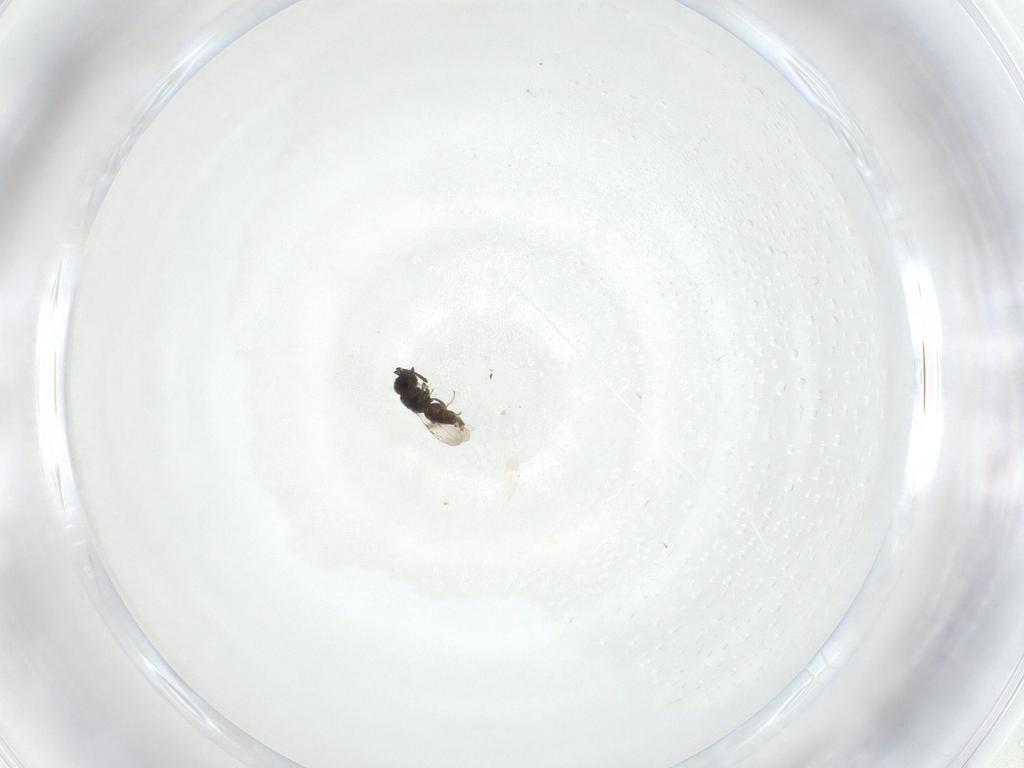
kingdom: Animalia
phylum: Arthropoda
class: Insecta
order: Hymenoptera
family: Ceraphronidae
